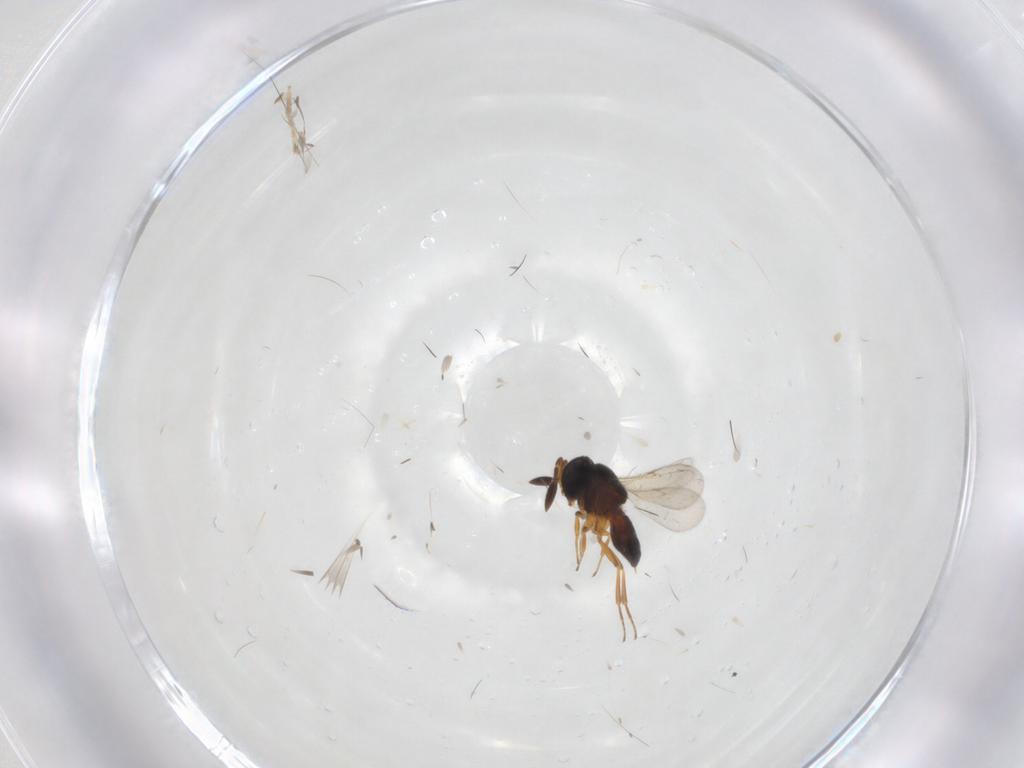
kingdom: Animalia
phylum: Arthropoda
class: Insecta
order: Hymenoptera
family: Scelionidae
